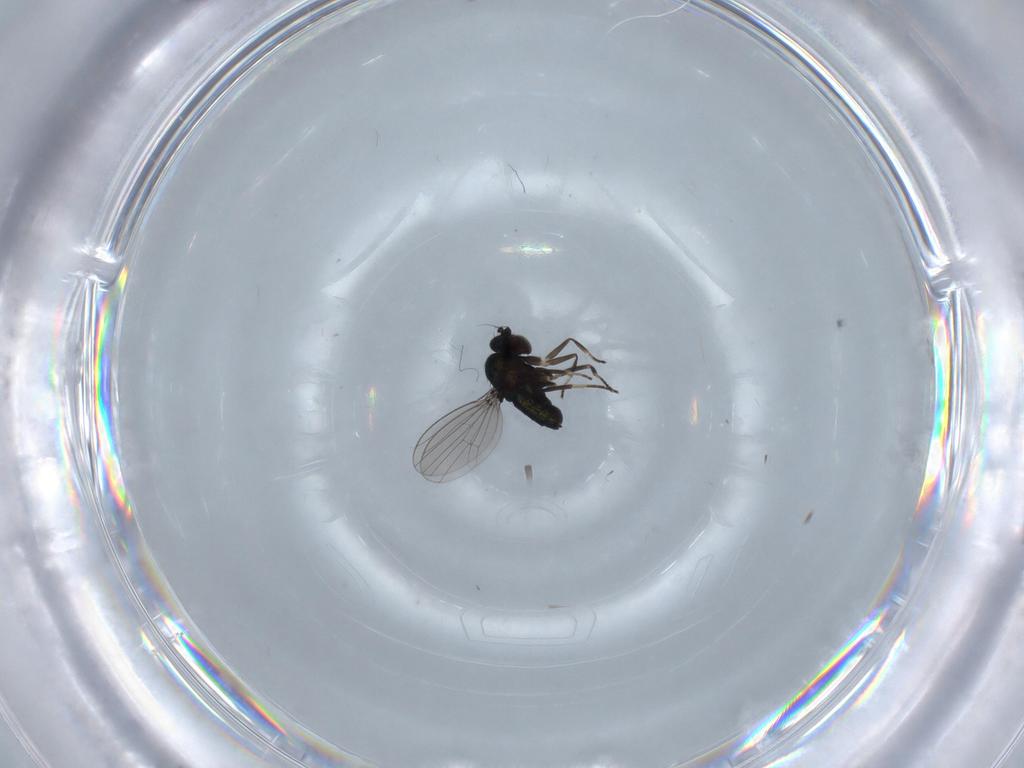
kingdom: Animalia
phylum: Arthropoda
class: Insecta
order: Diptera
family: Dolichopodidae
